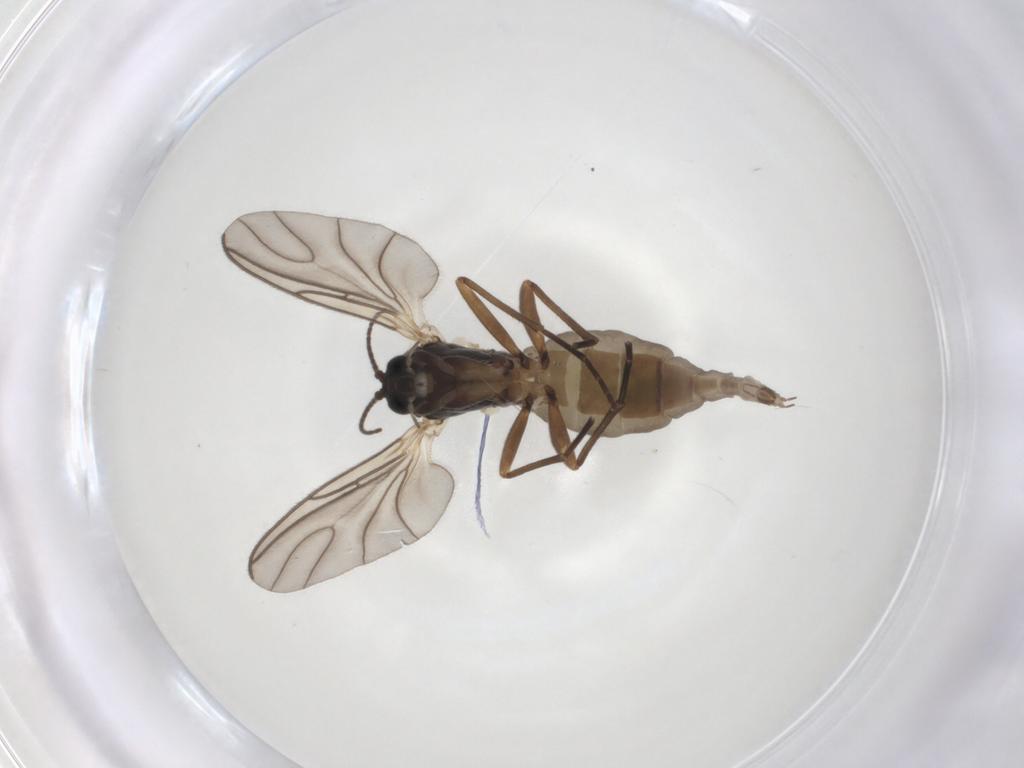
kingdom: Animalia
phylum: Arthropoda
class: Insecta
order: Diptera
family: Sciaridae
